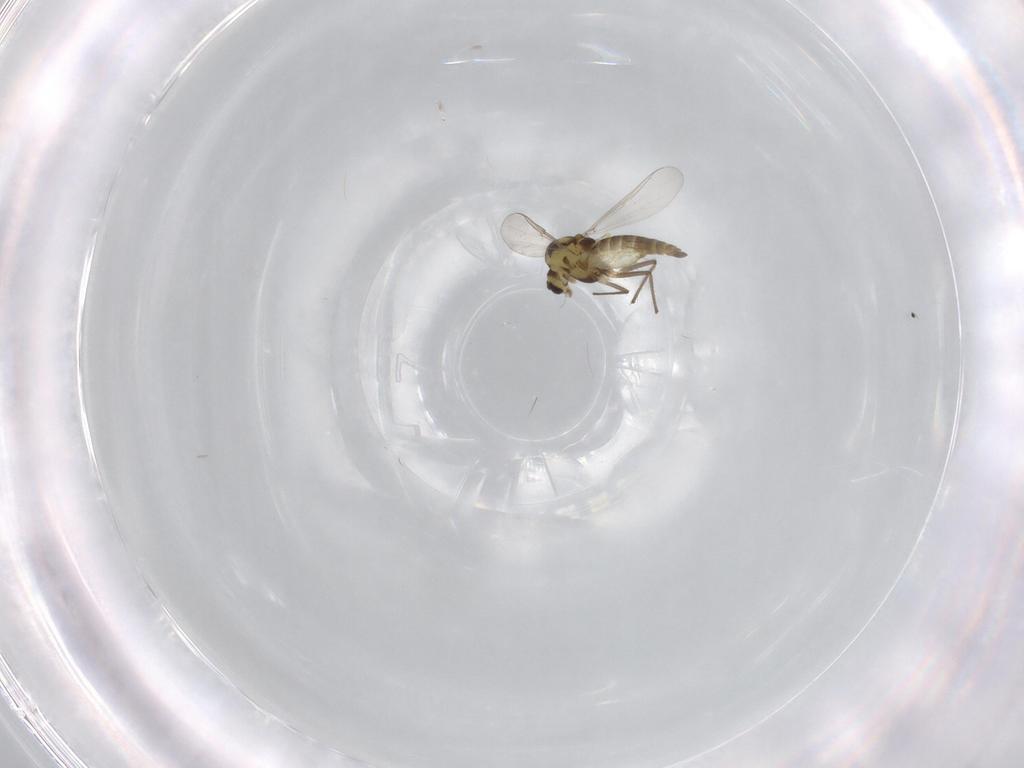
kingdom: Animalia
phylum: Arthropoda
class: Insecta
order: Diptera
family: Chironomidae
